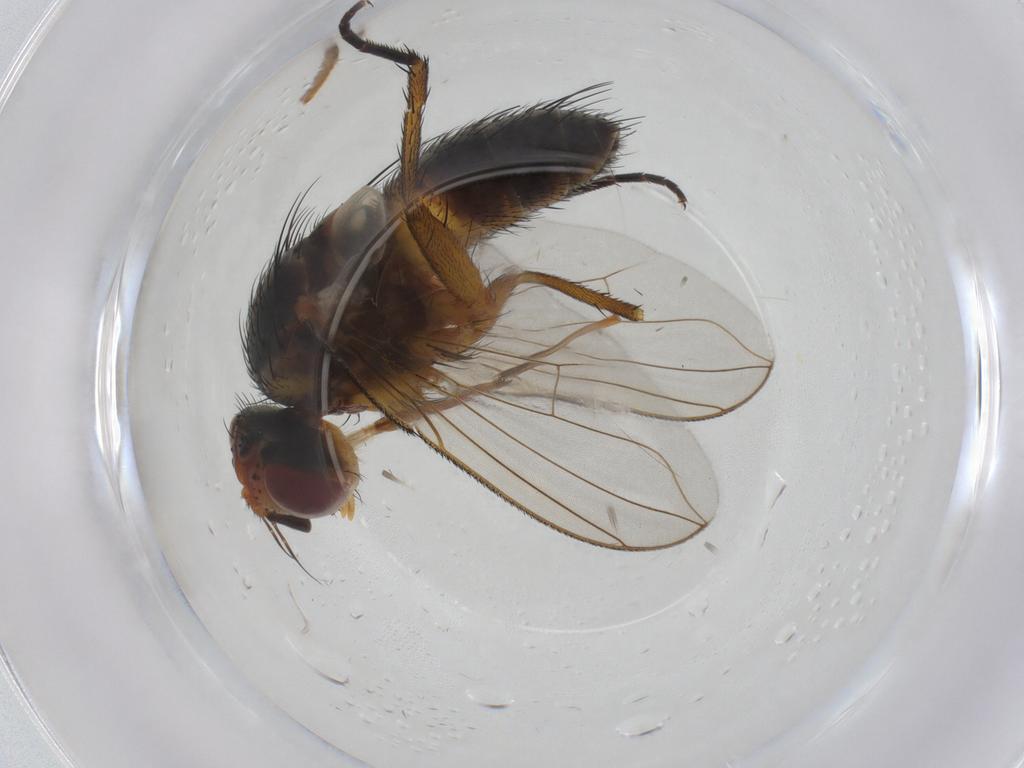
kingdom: Animalia
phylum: Arthropoda
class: Insecta
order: Diptera
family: Tachinidae
